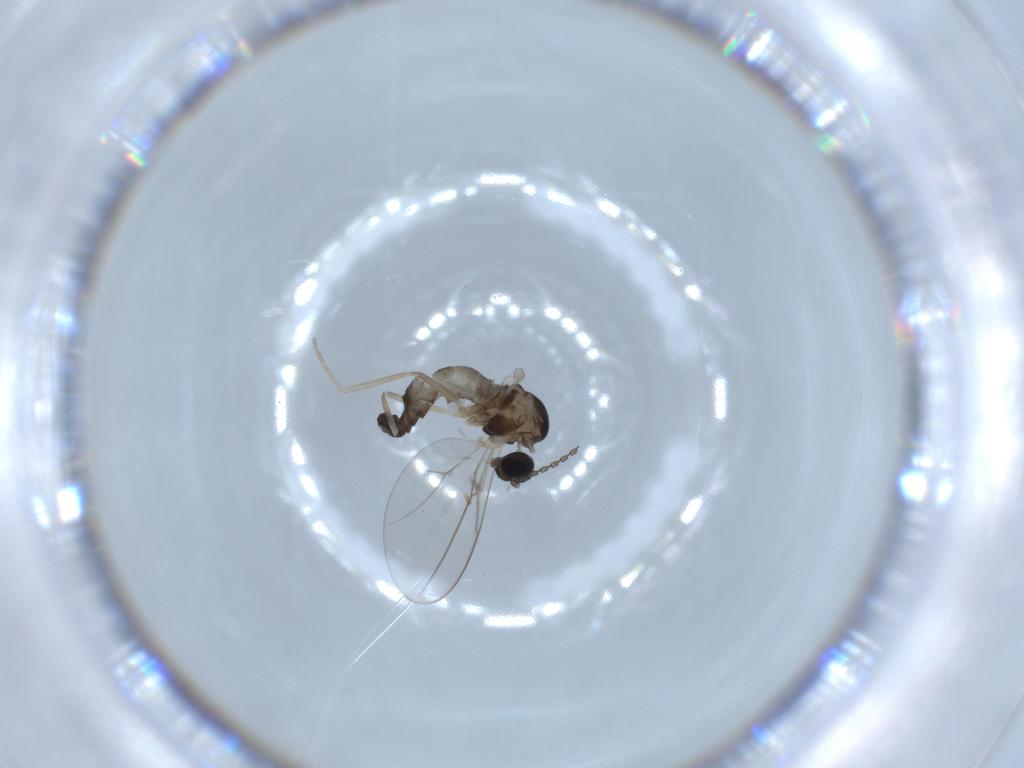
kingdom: Animalia
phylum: Arthropoda
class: Insecta
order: Diptera
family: Cecidomyiidae
